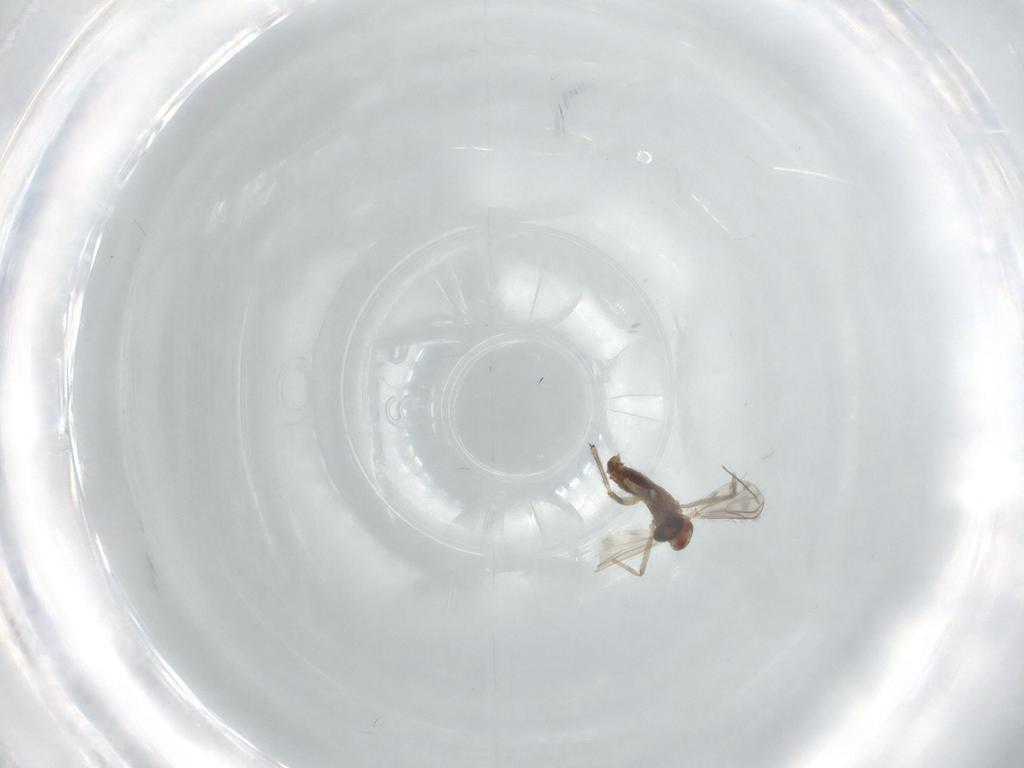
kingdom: Animalia
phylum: Arthropoda
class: Insecta
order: Diptera
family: Chironomidae
